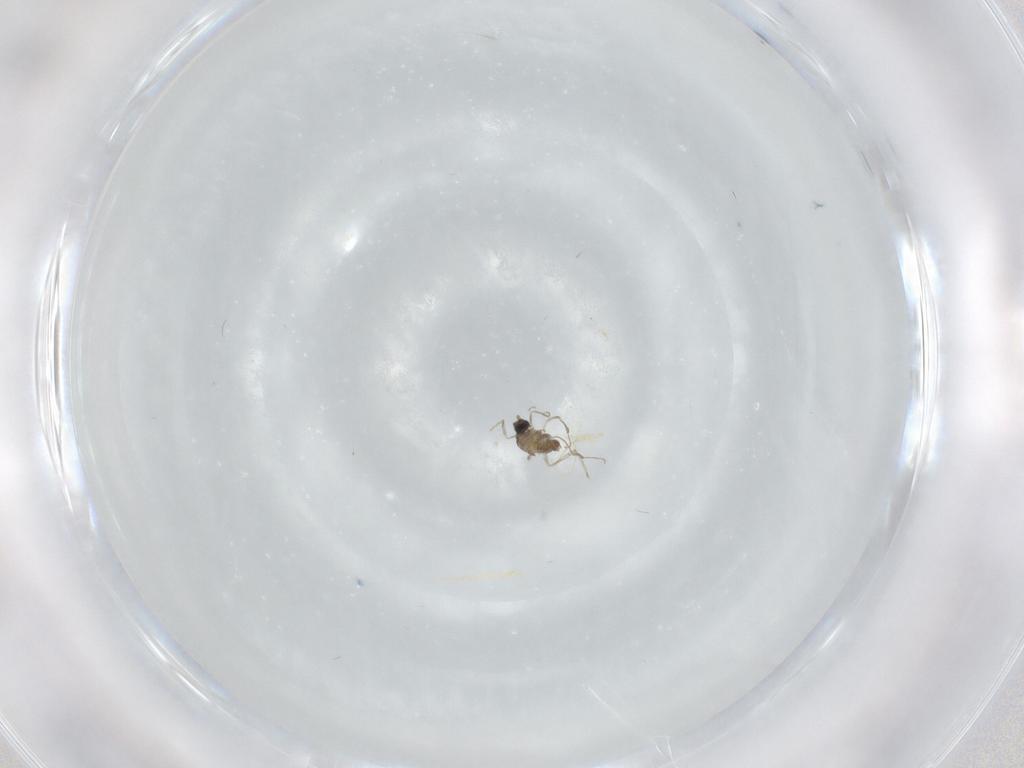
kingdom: Animalia
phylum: Arthropoda
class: Insecta
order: Diptera
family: Cecidomyiidae
